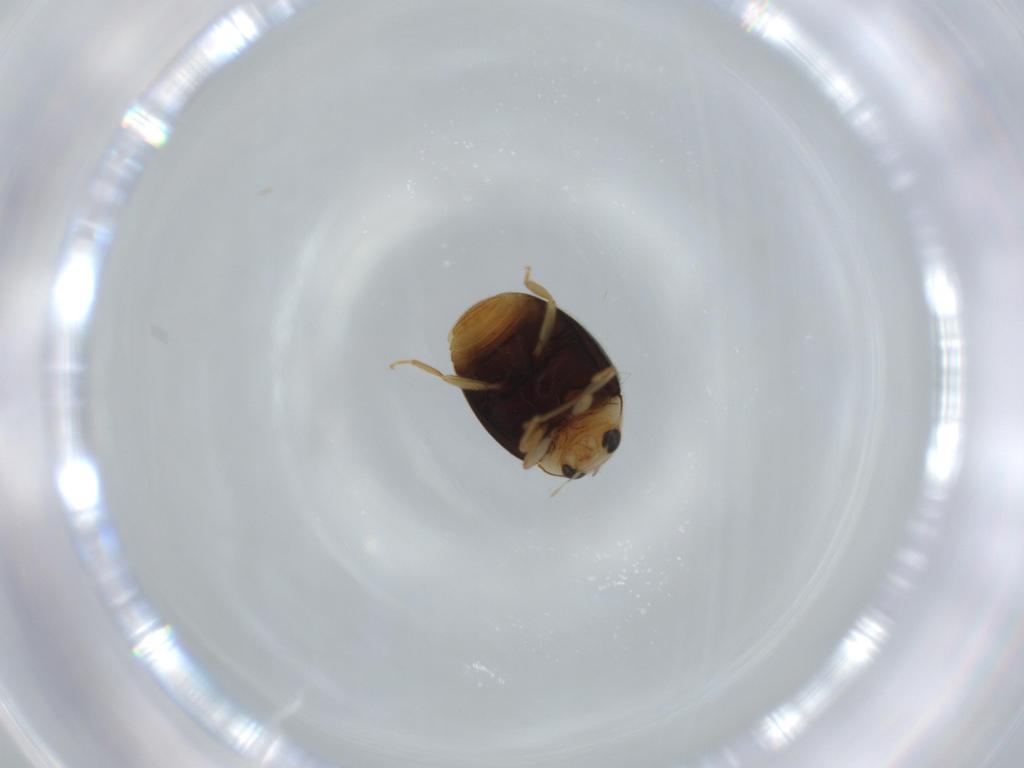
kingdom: Animalia
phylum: Arthropoda
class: Insecta
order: Coleoptera
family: Coccinellidae
